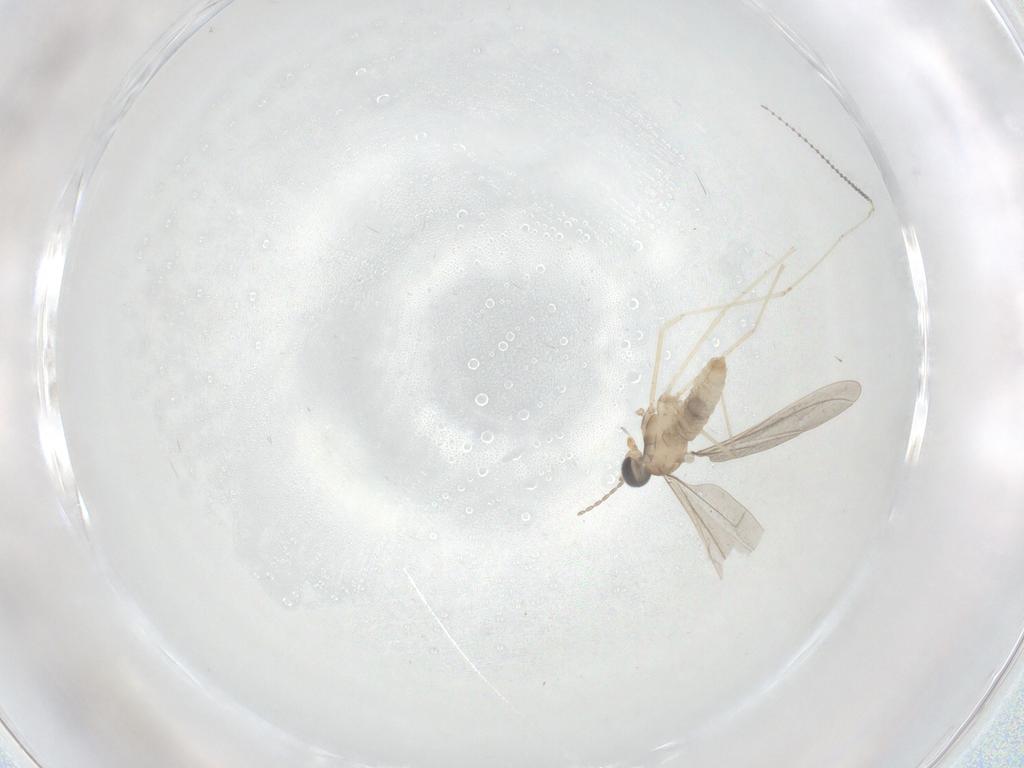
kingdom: Animalia
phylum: Arthropoda
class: Insecta
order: Diptera
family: Cecidomyiidae
